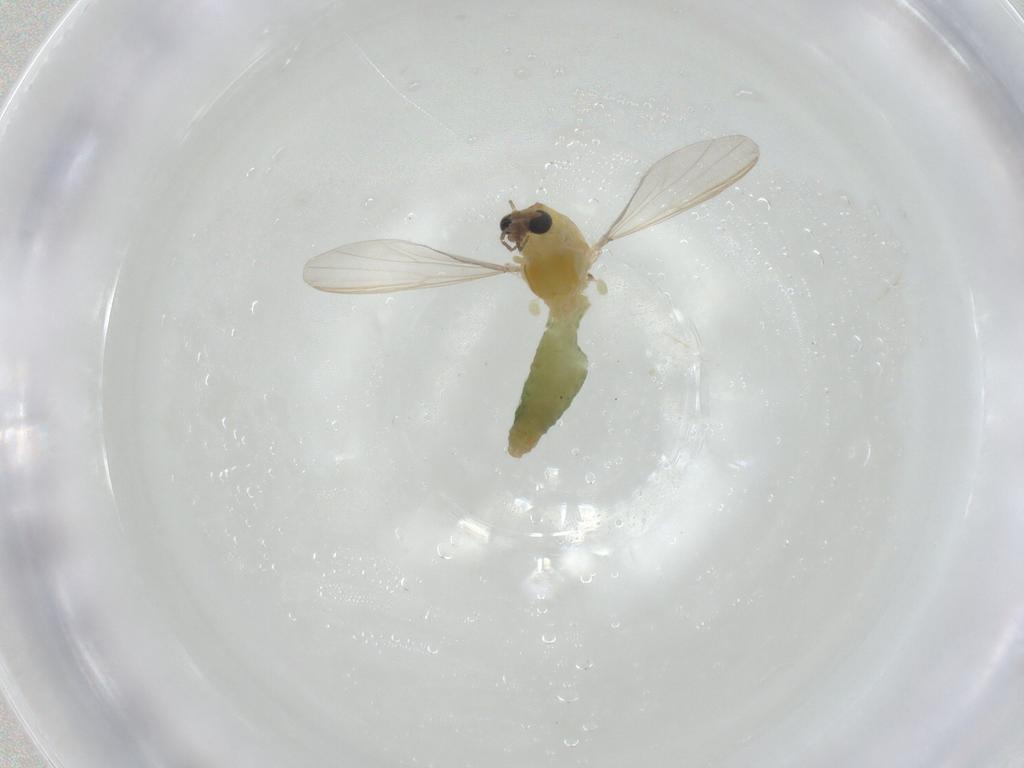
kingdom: Animalia
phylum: Arthropoda
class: Insecta
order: Diptera
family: Chironomidae
